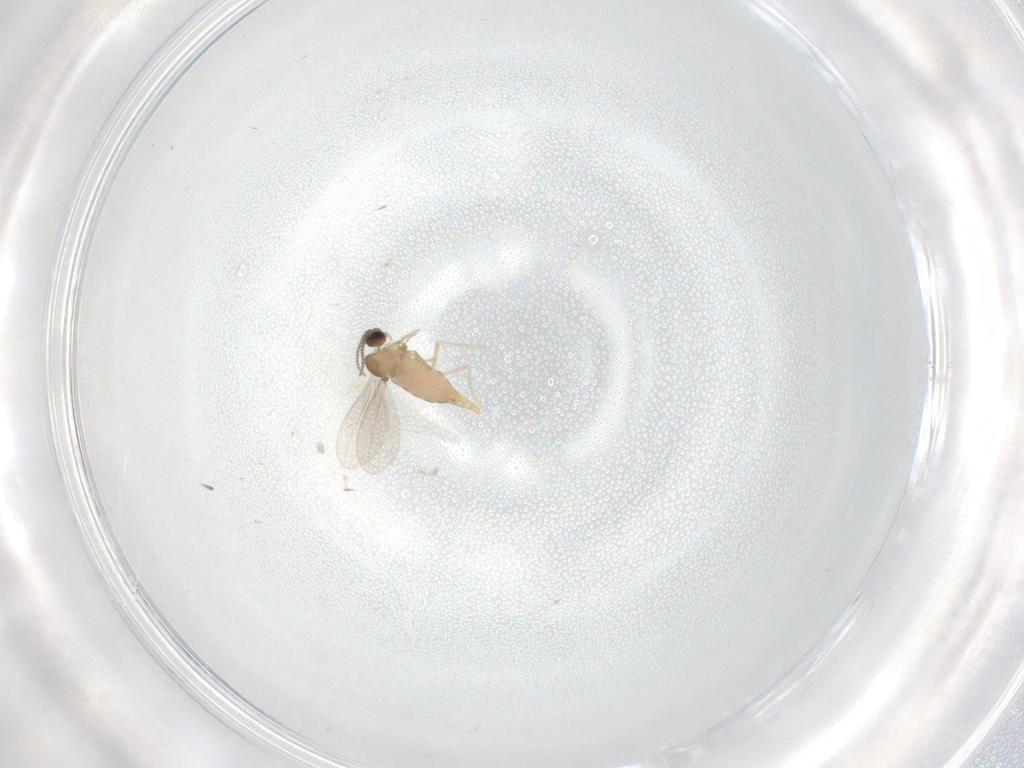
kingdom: Animalia
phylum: Arthropoda
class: Insecta
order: Diptera
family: Cecidomyiidae
